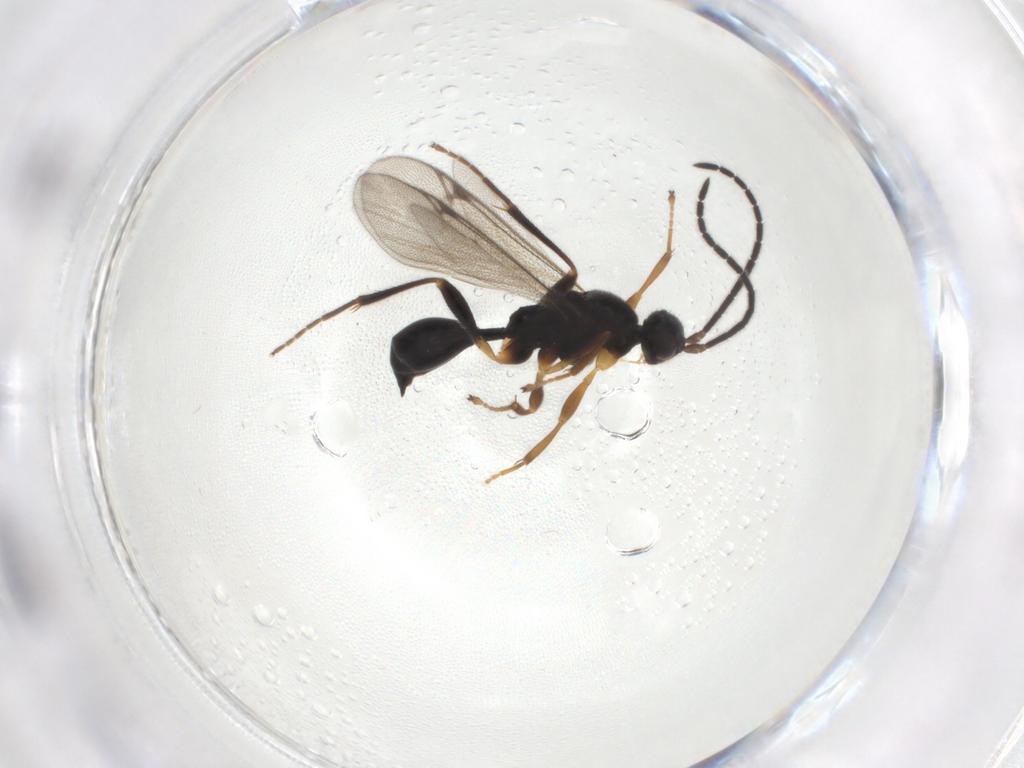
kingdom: Animalia
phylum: Arthropoda
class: Insecta
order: Hymenoptera
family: Proctotrupidae
